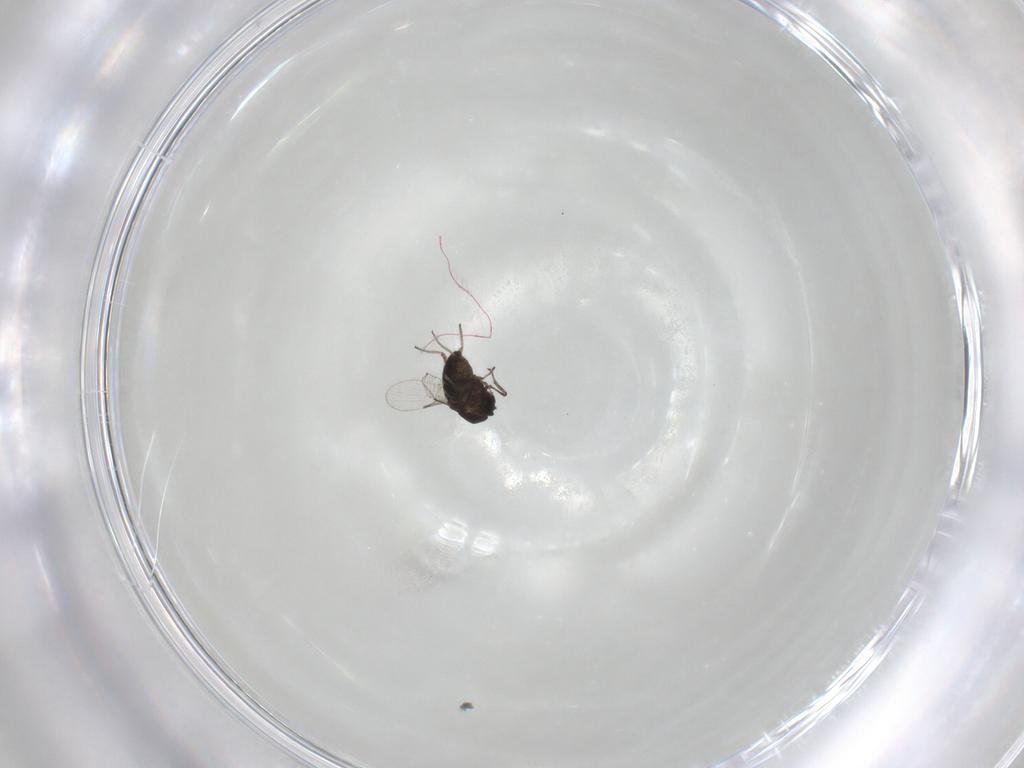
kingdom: Animalia
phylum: Arthropoda
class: Insecta
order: Diptera
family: Ceratopogonidae
